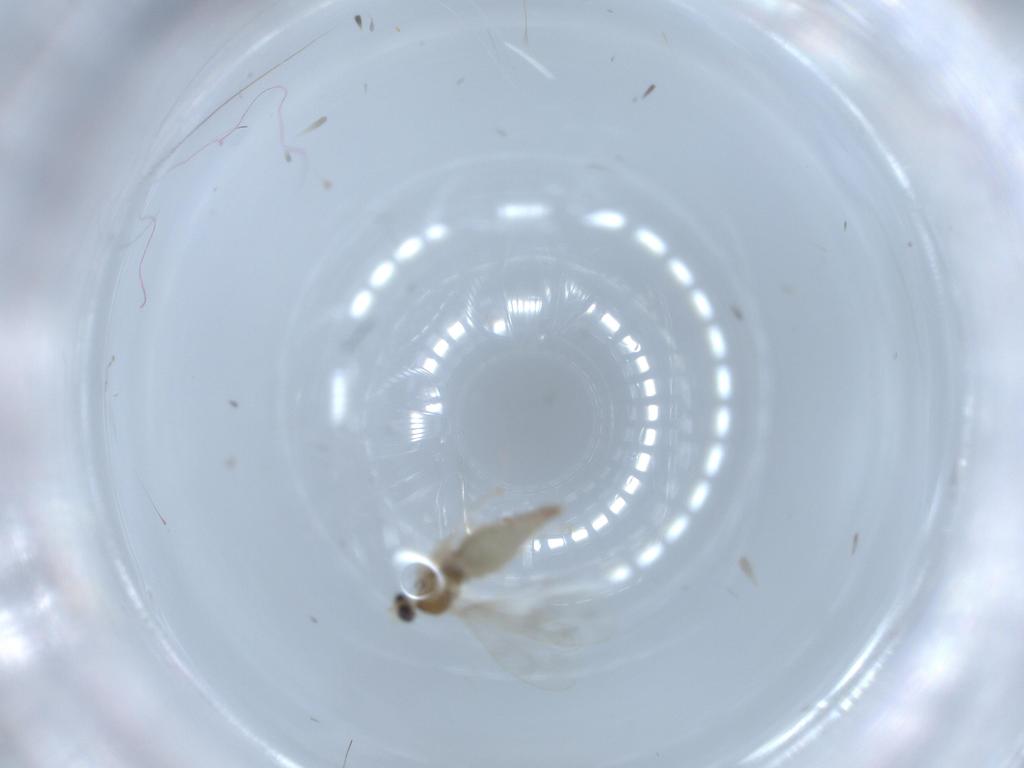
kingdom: Animalia
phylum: Arthropoda
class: Insecta
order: Diptera
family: Cecidomyiidae
